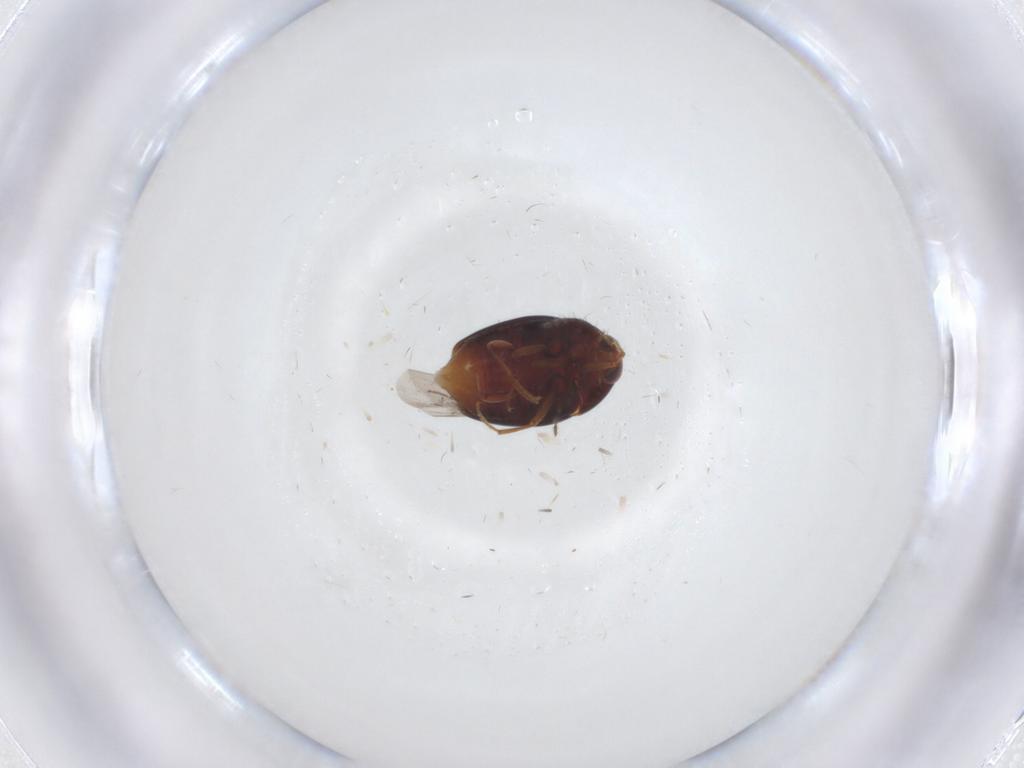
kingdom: Animalia
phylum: Arthropoda
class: Insecta
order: Coleoptera
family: Staphylinidae
